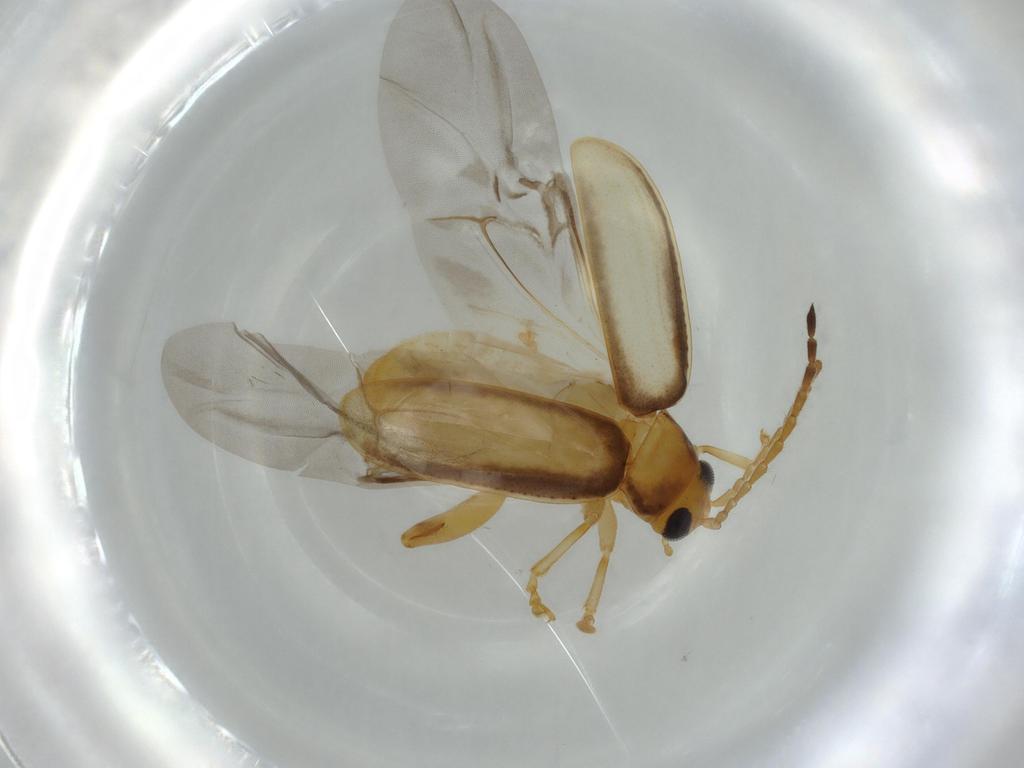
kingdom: Animalia
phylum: Arthropoda
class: Insecta
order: Coleoptera
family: Chrysomelidae
